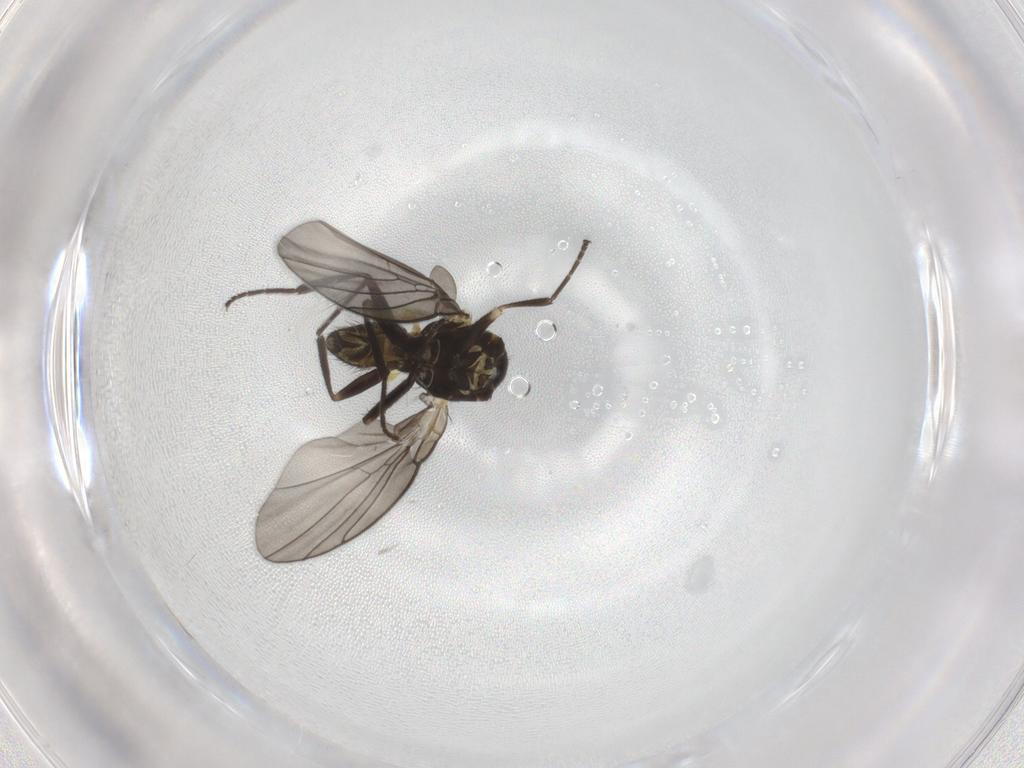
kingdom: Animalia
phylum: Arthropoda
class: Insecta
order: Diptera
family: Agromyzidae
